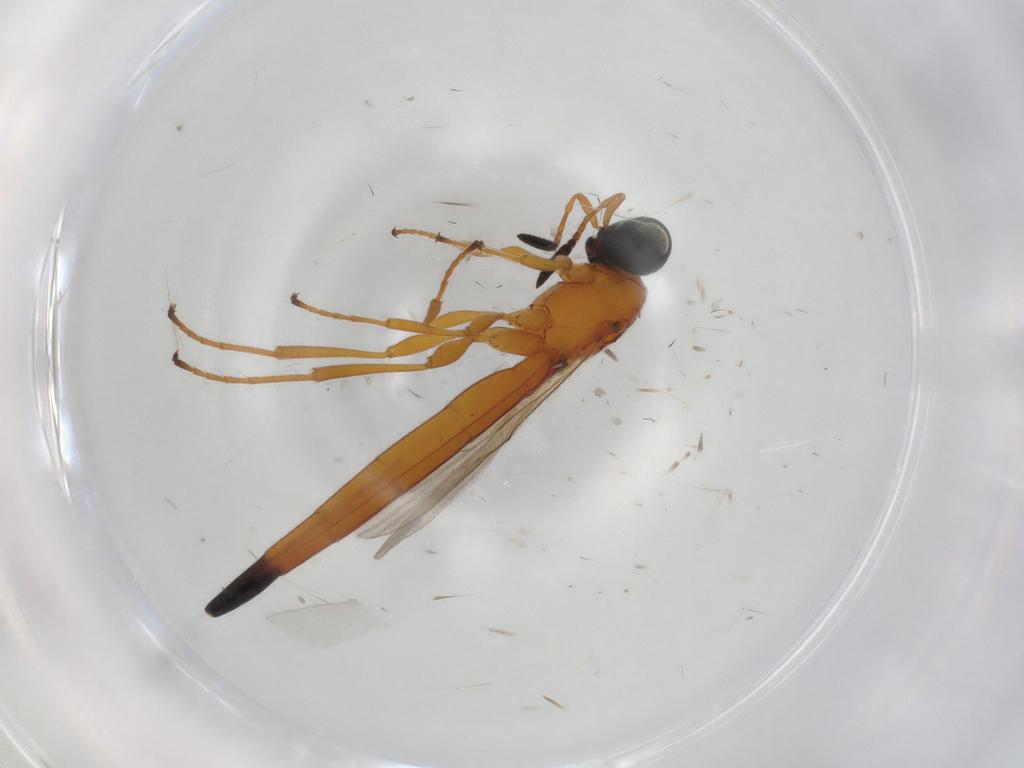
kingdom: Animalia
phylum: Arthropoda
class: Insecta
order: Hymenoptera
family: Scelionidae
